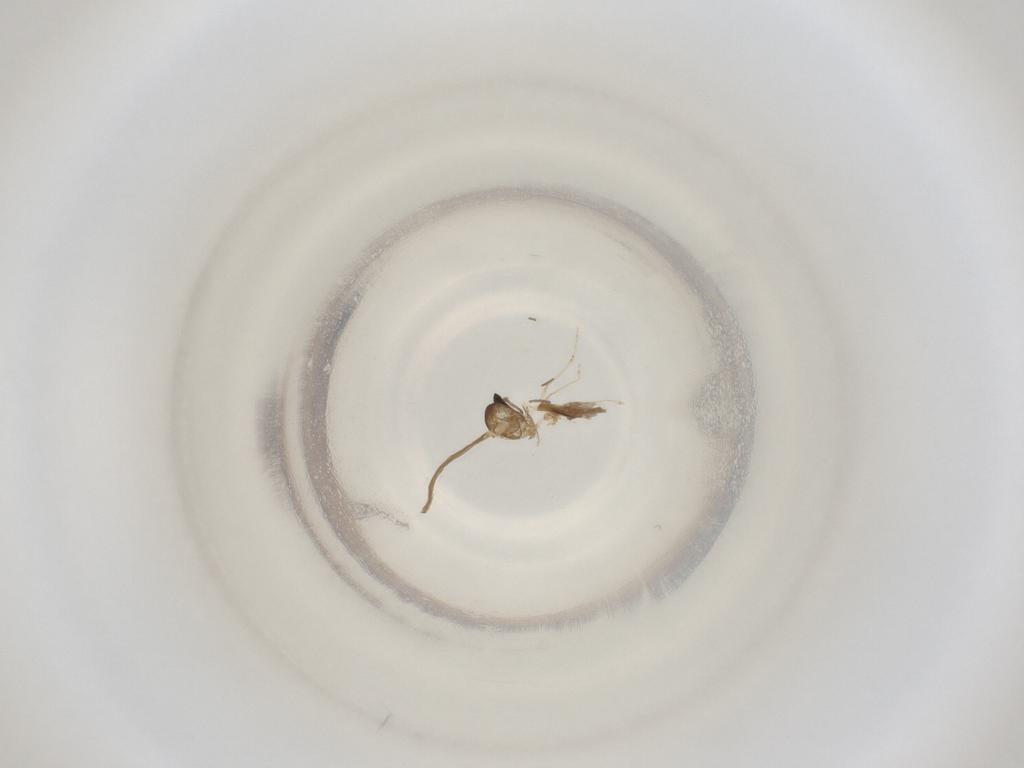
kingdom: Animalia
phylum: Arthropoda
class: Insecta
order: Diptera
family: Cecidomyiidae
